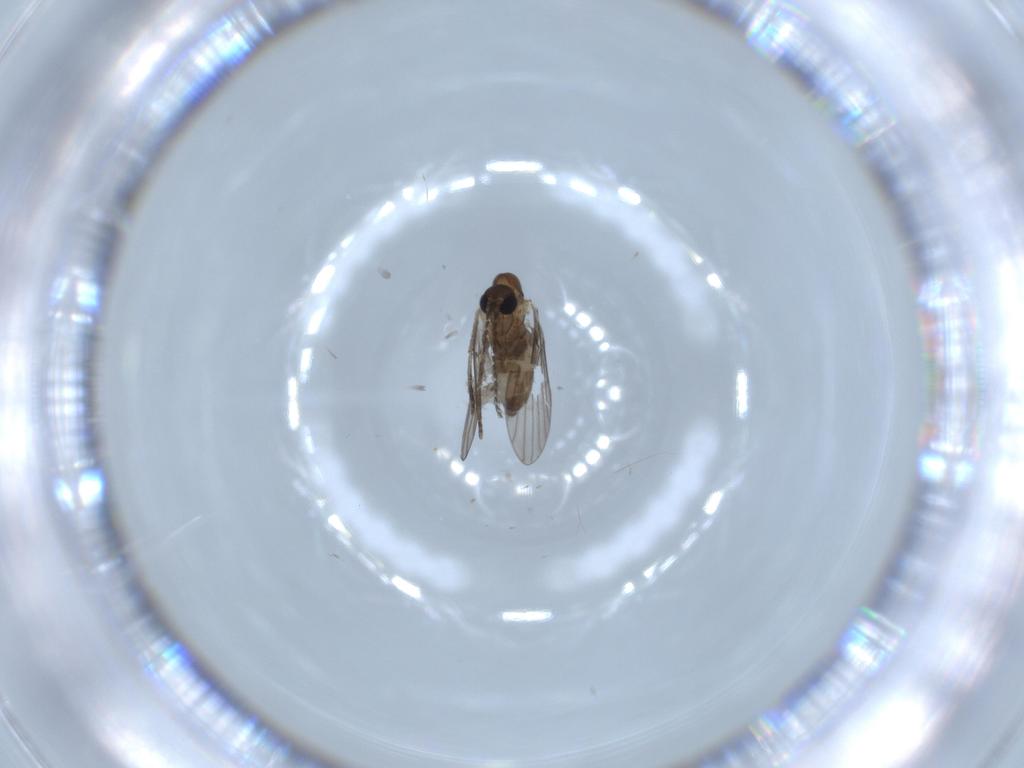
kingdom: Animalia
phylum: Arthropoda
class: Insecta
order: Diptera
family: Psychodidae
